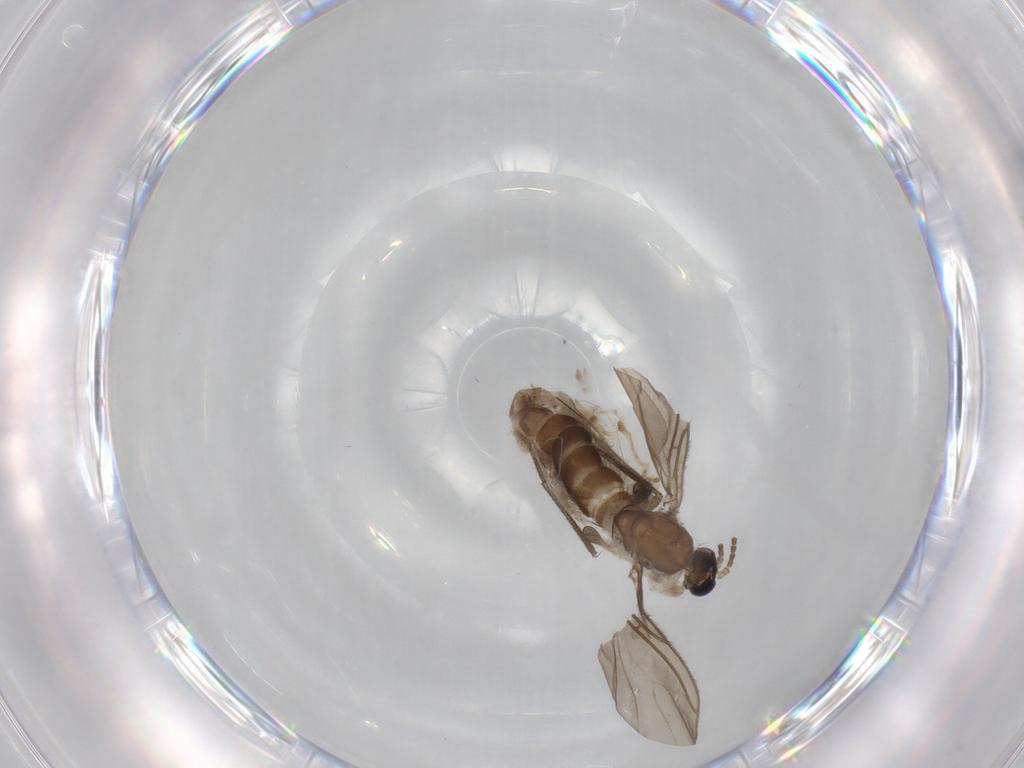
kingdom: Animalia
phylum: Arthropoda
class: Insecta
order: Diptera
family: Cecidomyiidae
